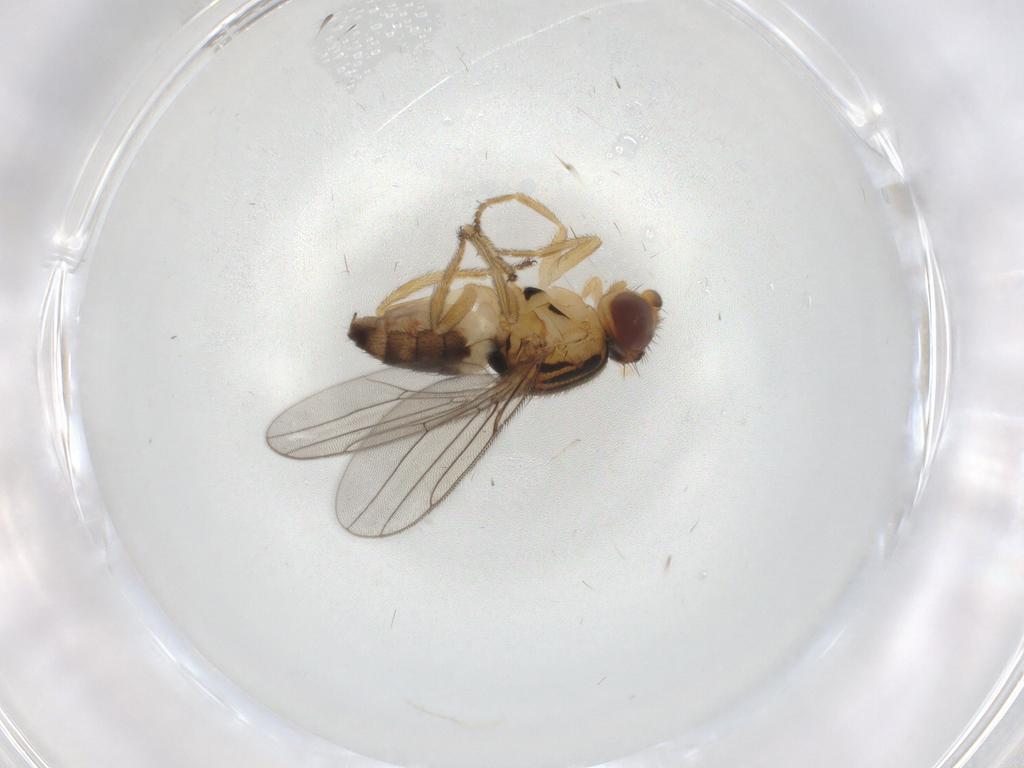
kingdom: Animalia
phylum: Arthropoda
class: Insecta
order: Diptera
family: Chloropidae
